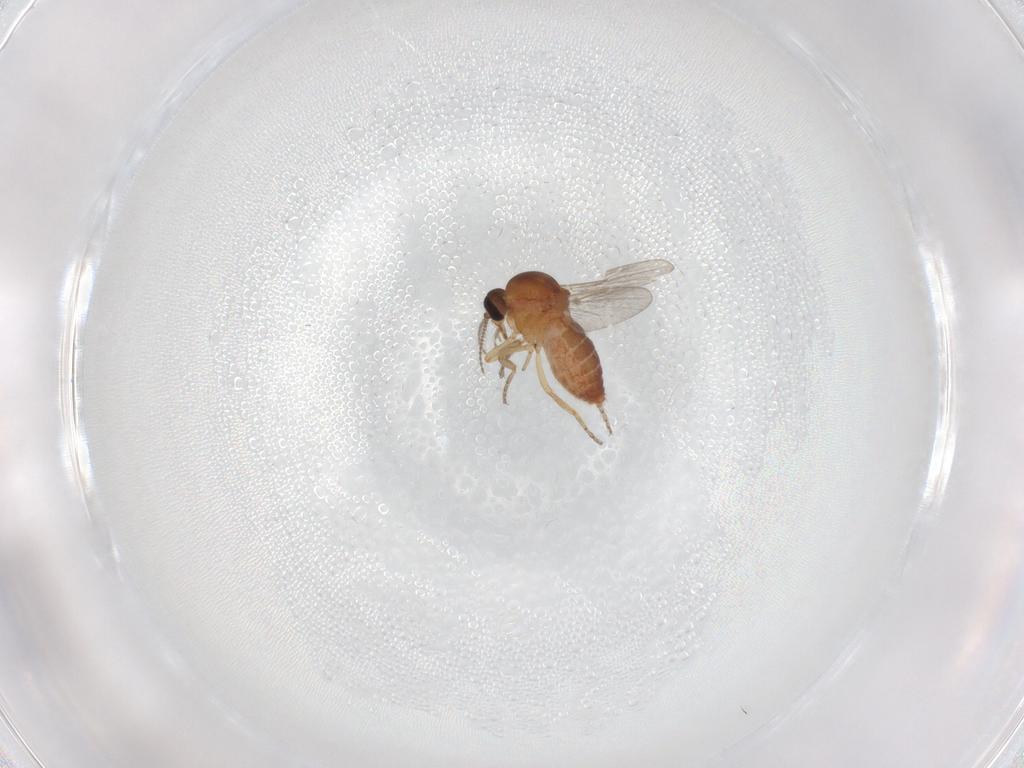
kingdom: Animalia
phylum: Arthropoda
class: Insecta
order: Diptera
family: Ceratopogonidae
